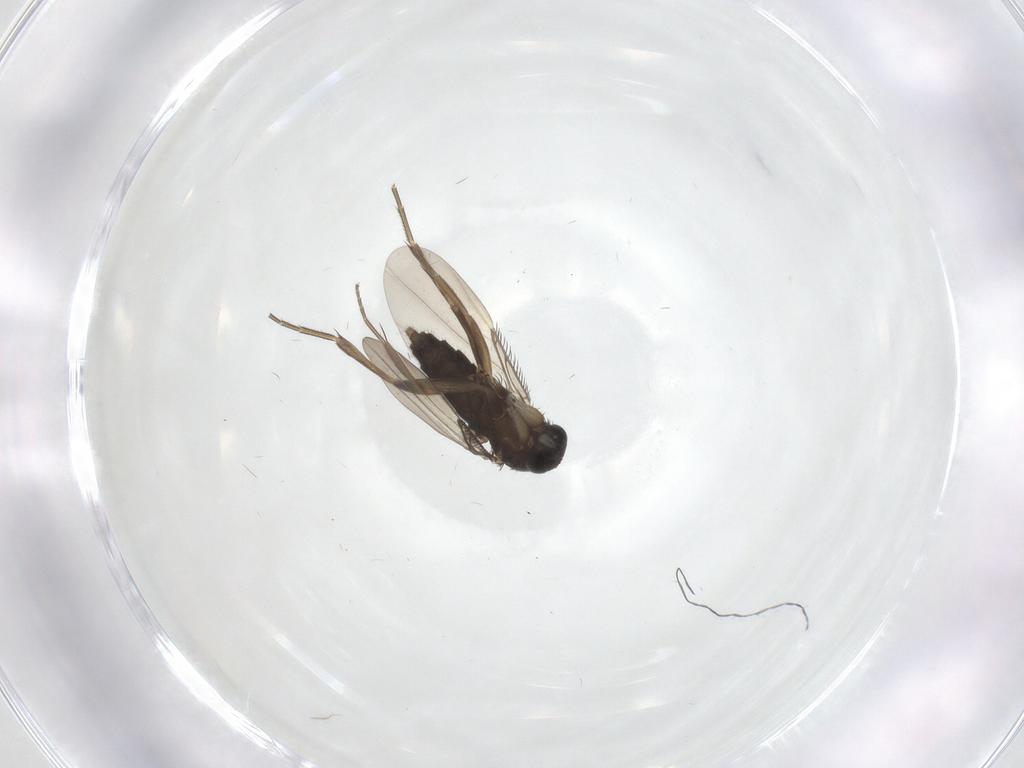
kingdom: Animalia
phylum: Arthropoda
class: Insecta
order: Diptera
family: Phoridae
